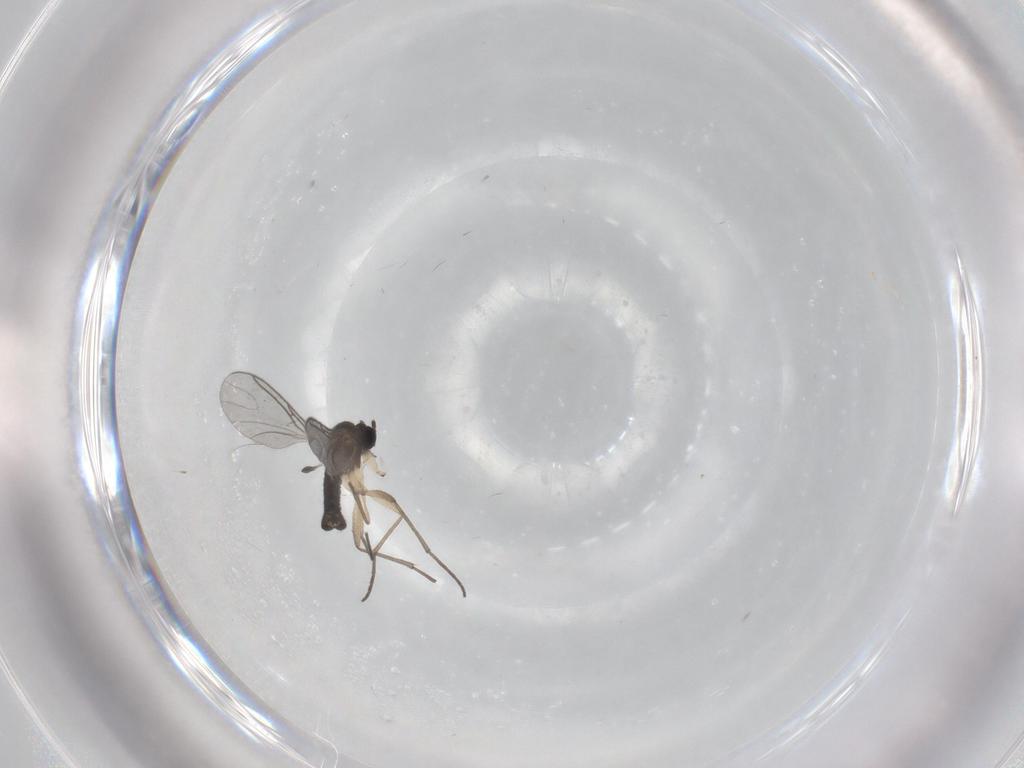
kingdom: Animalia
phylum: Arthropoda
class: Insecta
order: Diptera
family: Sciaridae
